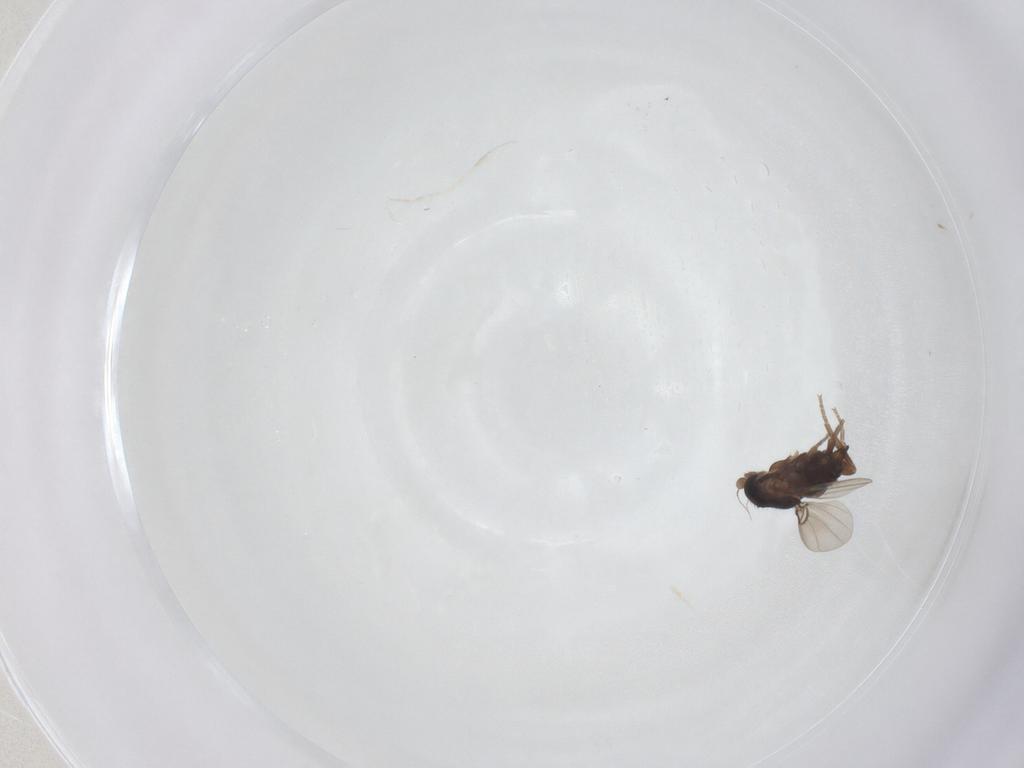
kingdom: Animalia
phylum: Arthropoda
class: Insecta
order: Diptera
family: Phoridae
